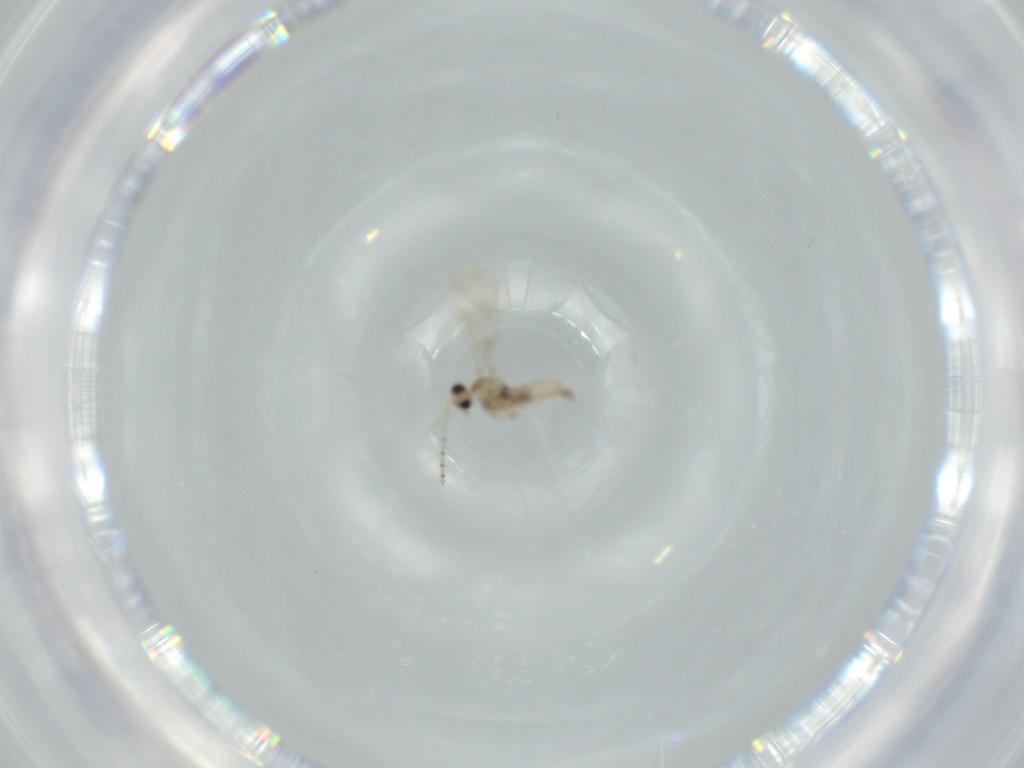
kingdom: Animalia
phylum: Arthropoda
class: Insecta
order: Diptera
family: Cecidomyiidae
